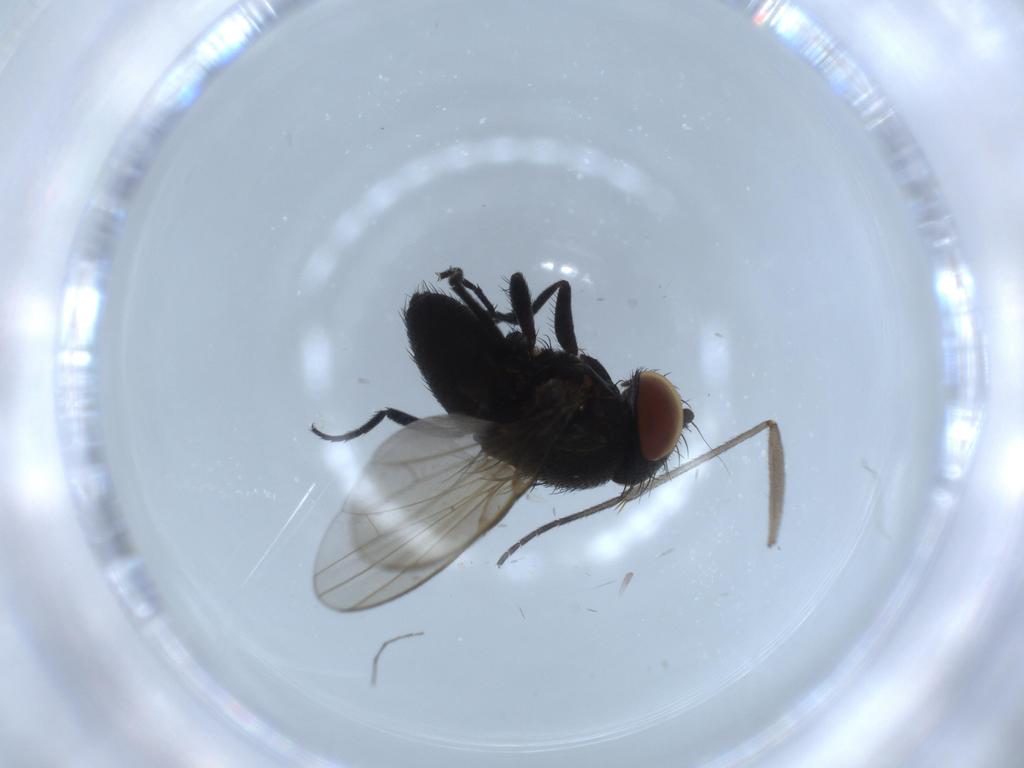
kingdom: Animalia
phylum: Arthropoda
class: Insecta
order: Diptera
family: Milichiidae
